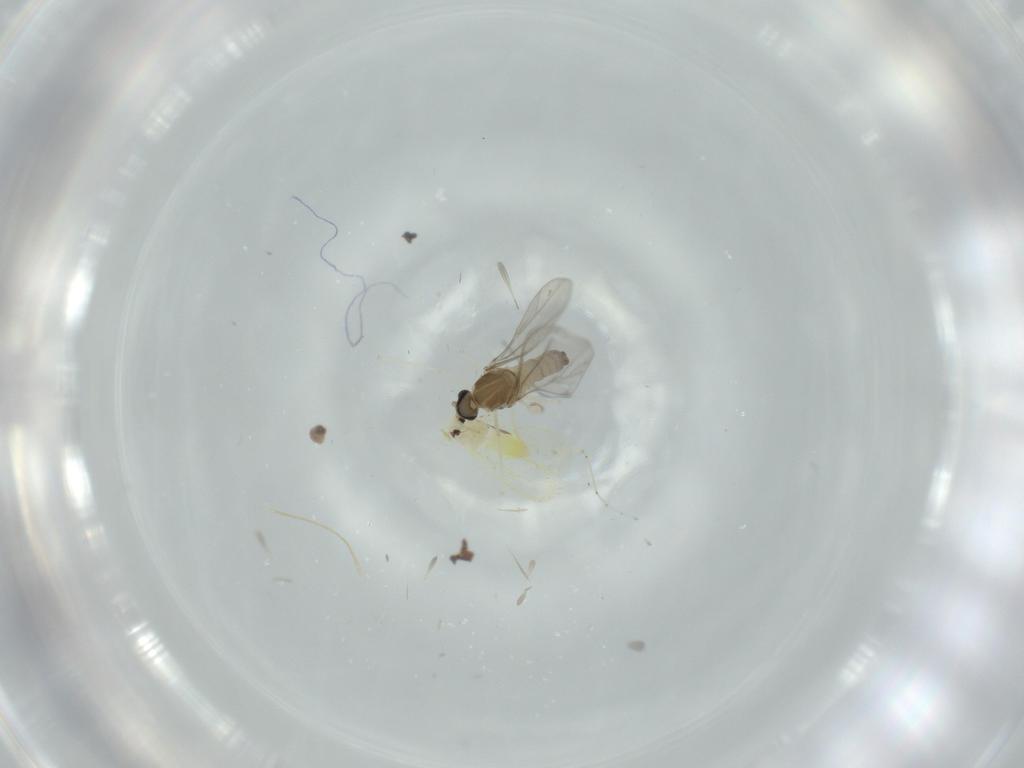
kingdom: Animalia
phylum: Arthropoda
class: Insecta
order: Diptera
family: Cecidomyiidae
